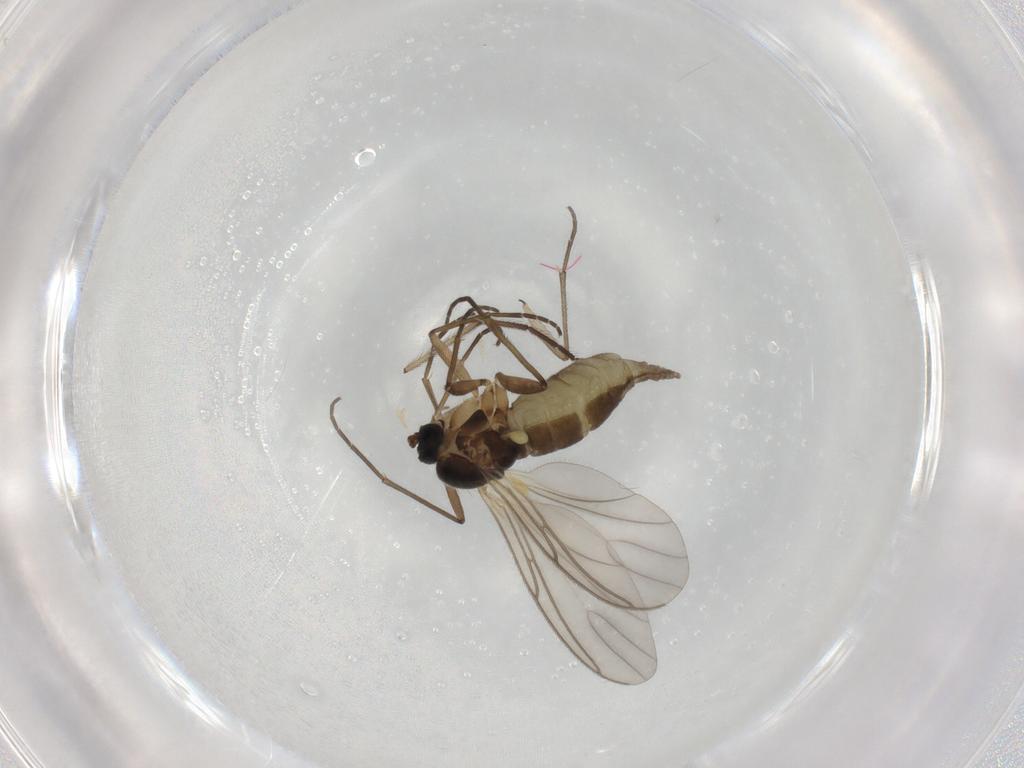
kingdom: Animalia
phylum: Arthropoda
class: Insecta
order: Diptera
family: Sciaridae
